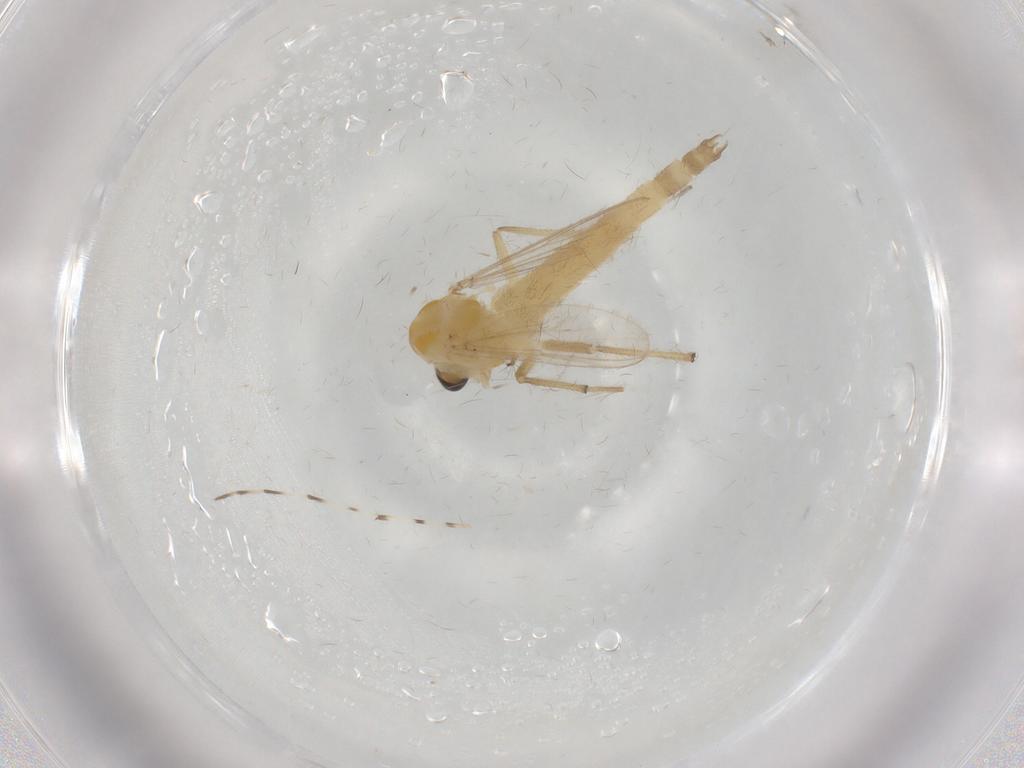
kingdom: Animalia
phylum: Arthropoda
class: Insecta
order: Diptera
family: Chironomidae
